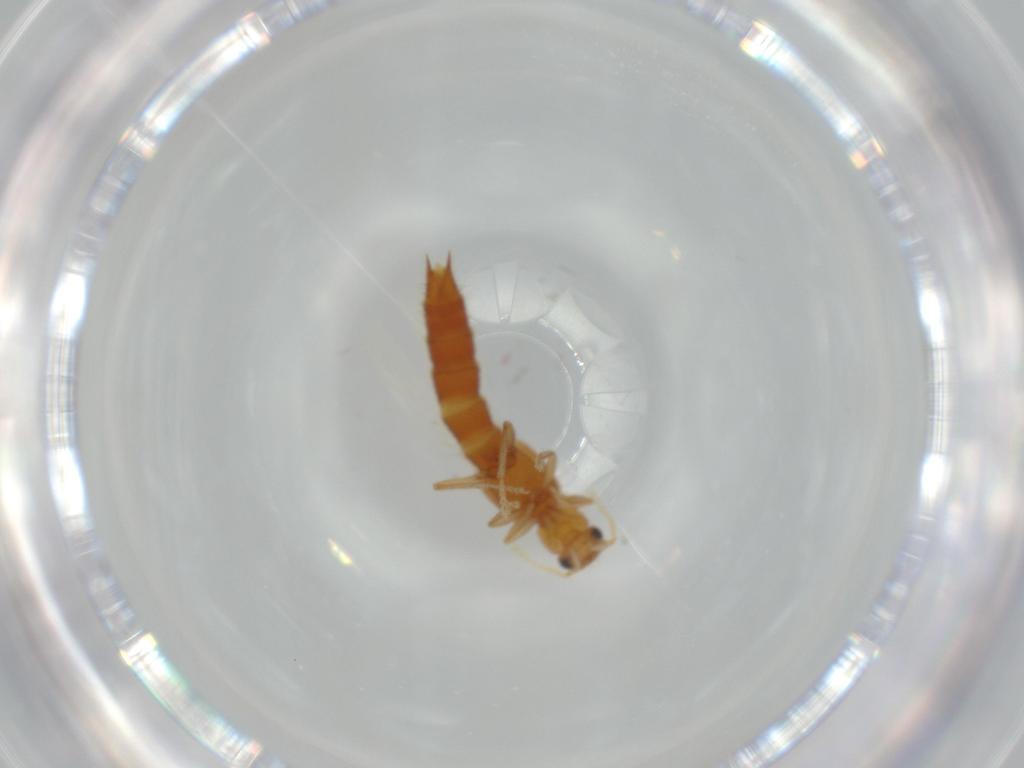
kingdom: Animalia
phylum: Arthropoda
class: Insecta
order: Coleoptera
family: Staphylinidae
